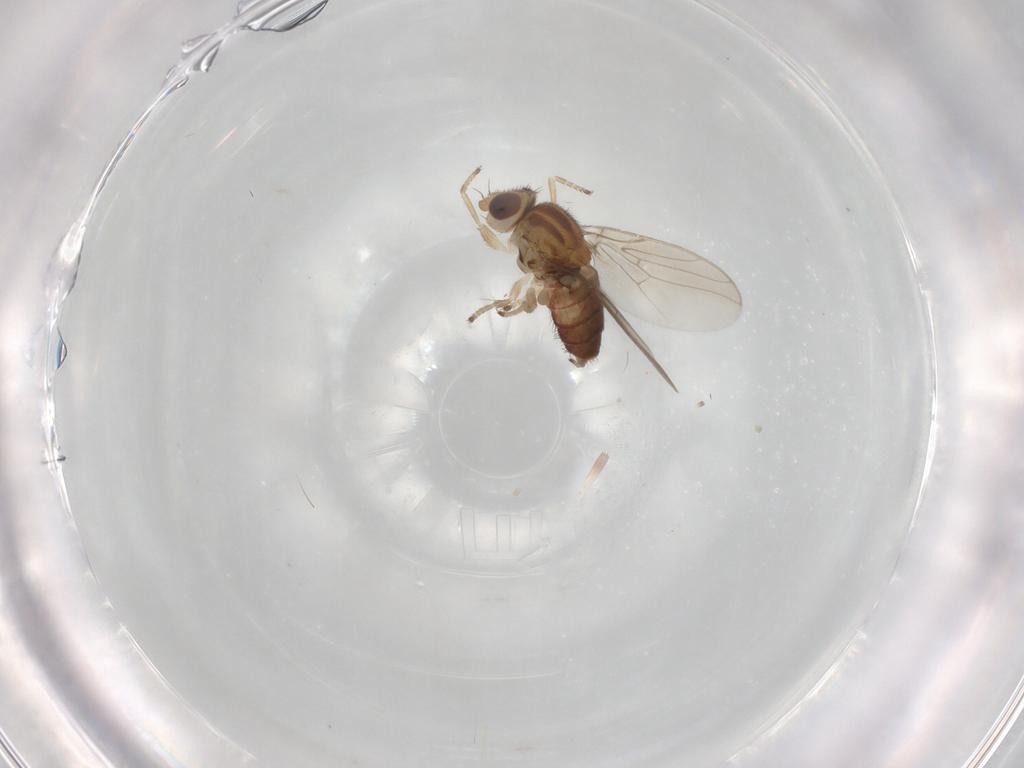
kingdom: Animalia
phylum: Arthropoda
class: Insecta
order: Diptera
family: Chloropidae
